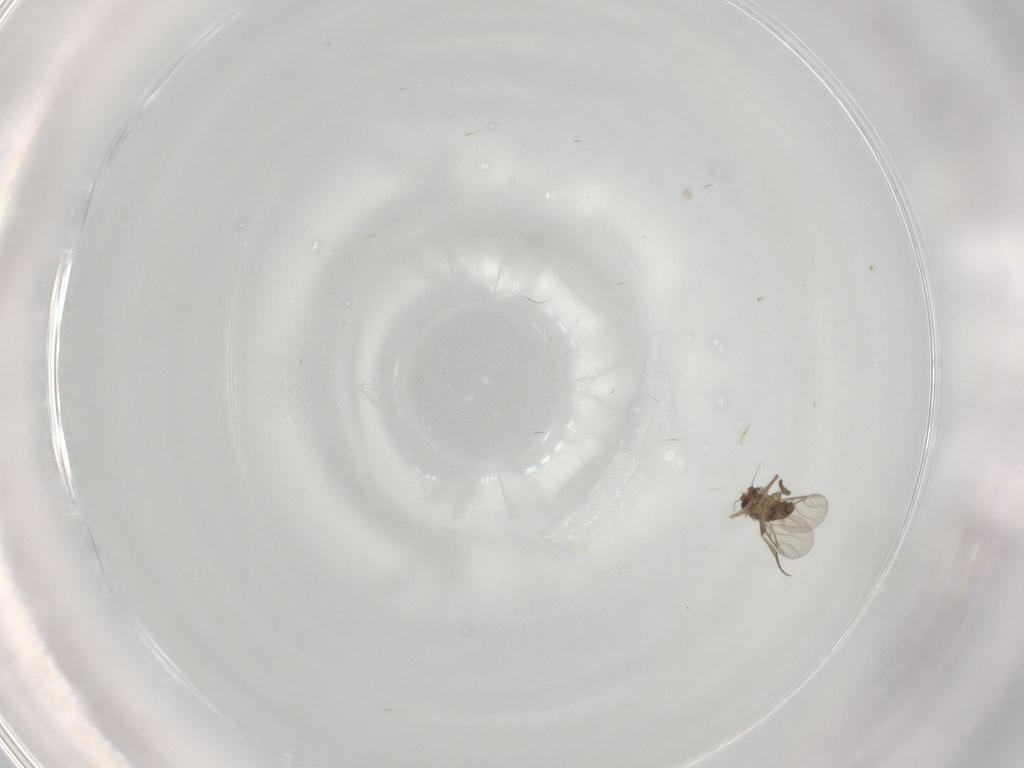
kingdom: Animalia
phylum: Arthropoda
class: Insecta
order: Diptera
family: Phoridae
